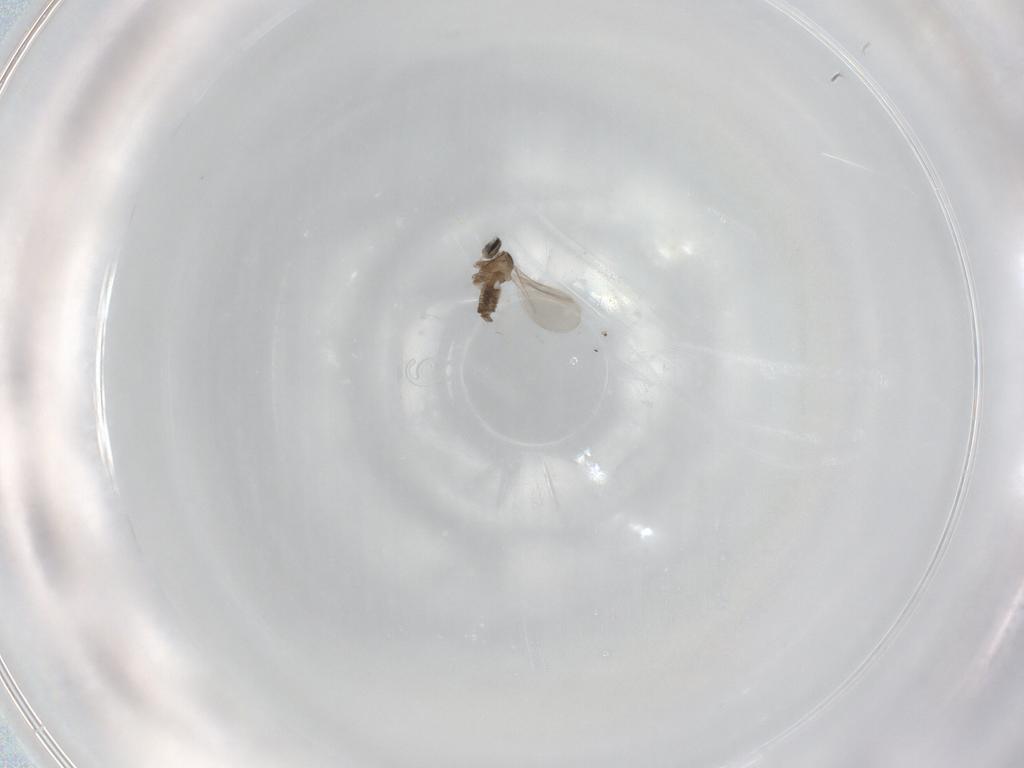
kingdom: Animalia
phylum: Arthropoda
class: Insecta
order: Diptera
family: Cecidomyiidae
